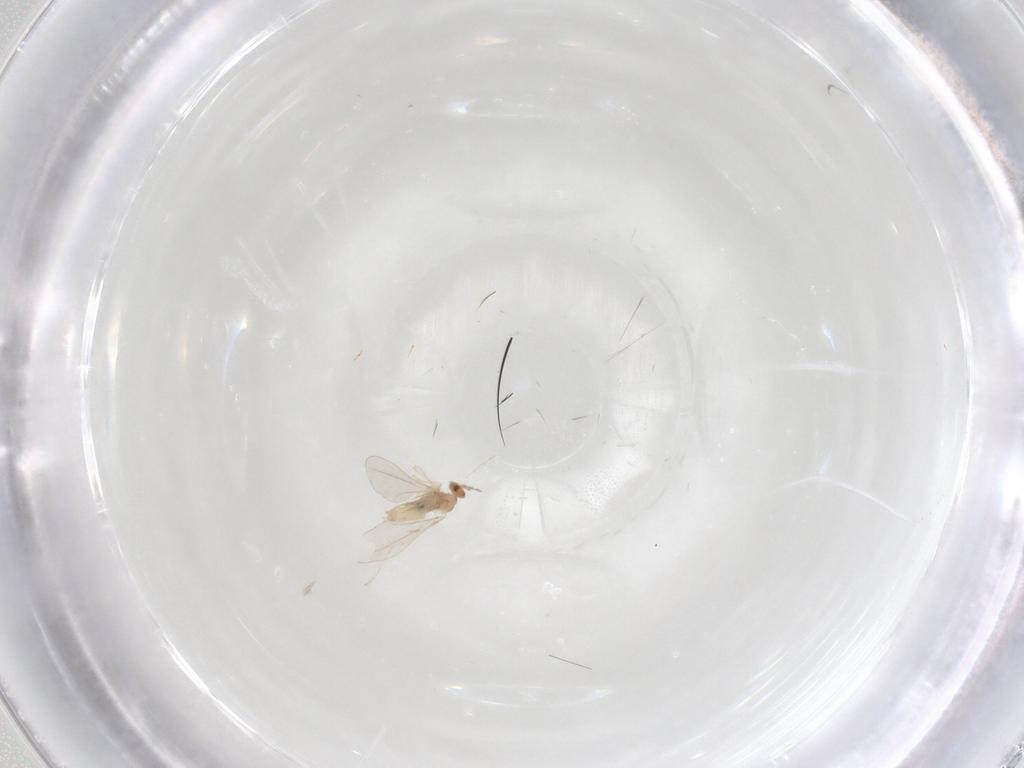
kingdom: Animalia
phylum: Arthropoda
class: Insecta
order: Diptera
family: Cecidomyiidae
